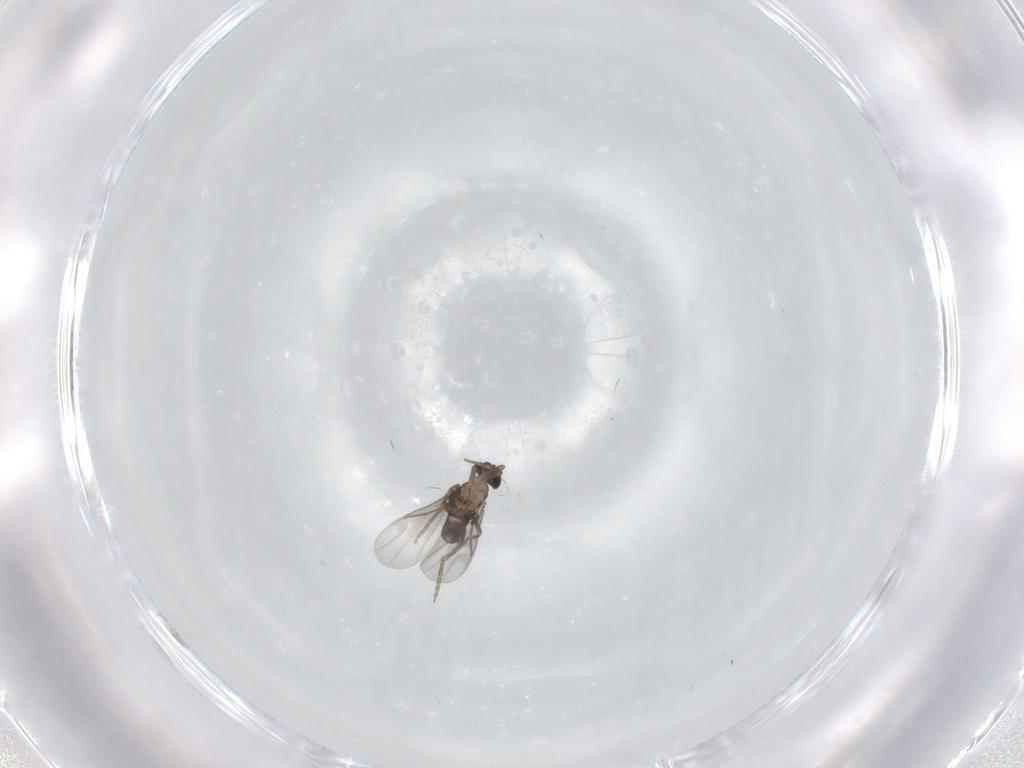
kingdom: Animalia
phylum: Arthropoda
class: Insecta
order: Diptera
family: Phoridae
